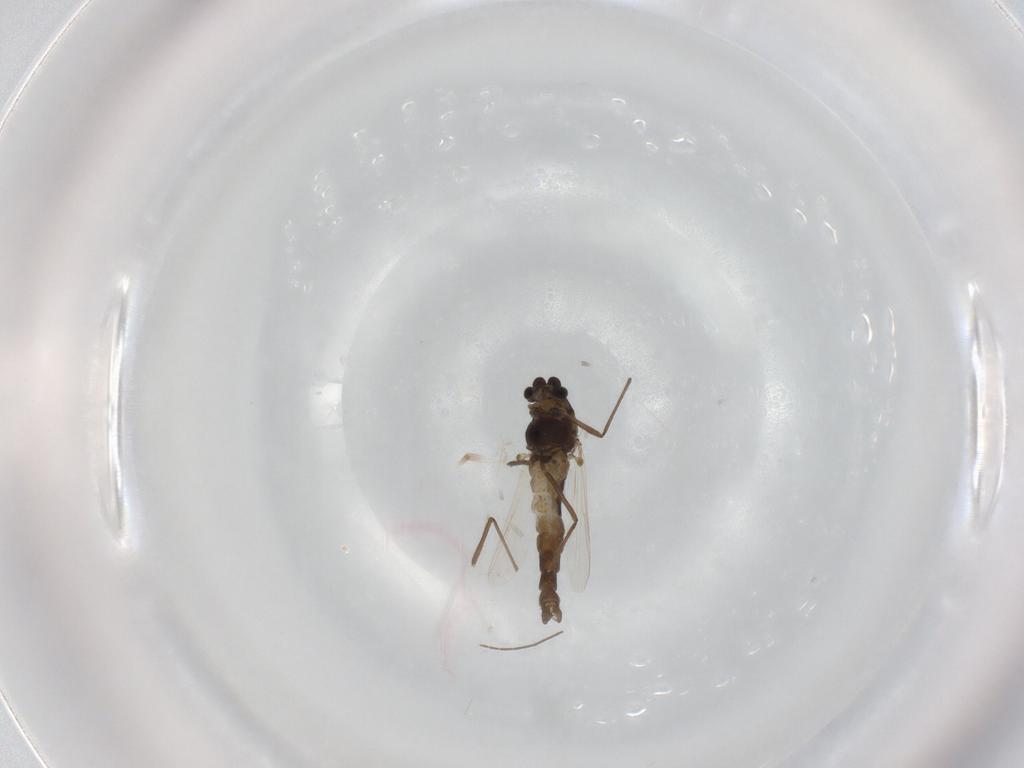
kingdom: Animalia
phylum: Arthropoda
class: Insecta
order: Diptera
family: Chironomidae
